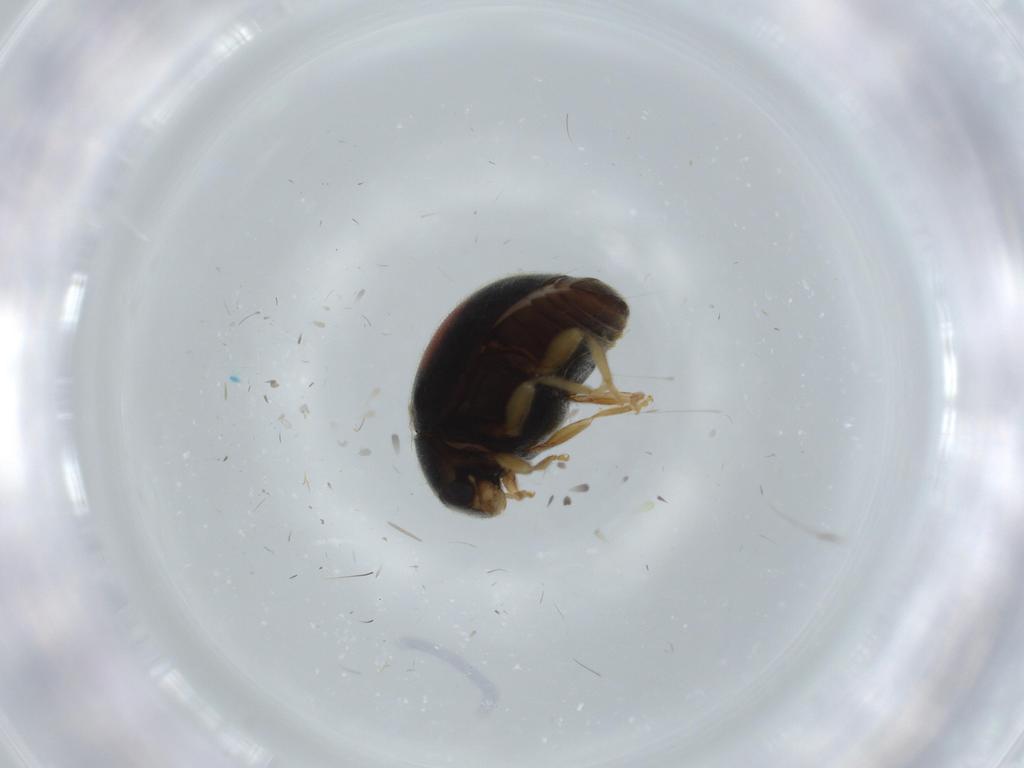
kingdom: Animalia
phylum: Arthropoda
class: Insecta
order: Coleoptera
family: Coccinellidae
